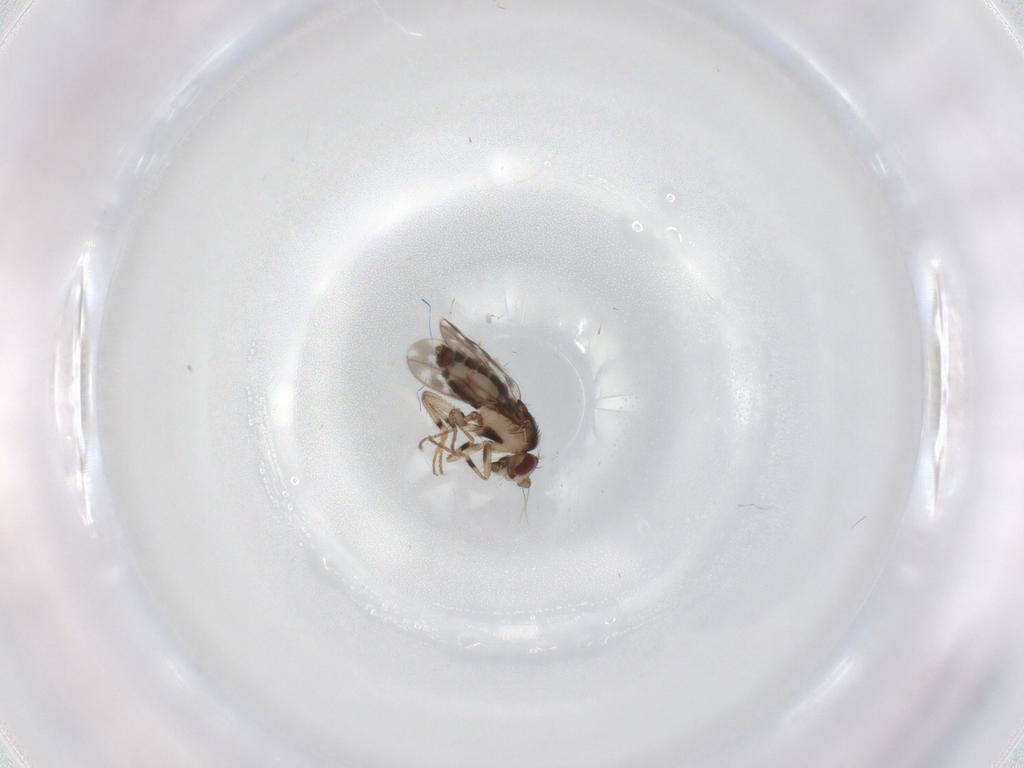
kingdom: Animalia
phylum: Arthropoda
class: Insecta
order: Diptera
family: Sphaeroceridae
